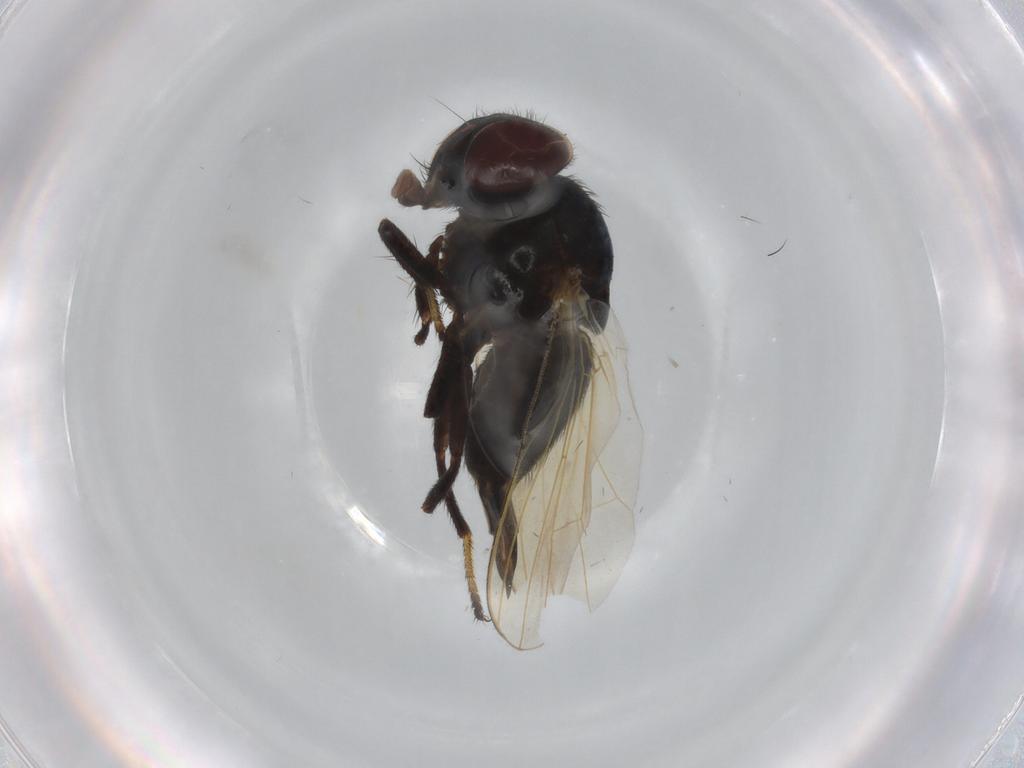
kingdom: Animalia
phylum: Arthropoda
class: Insecta
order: Diptera
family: Lonchaeidae
